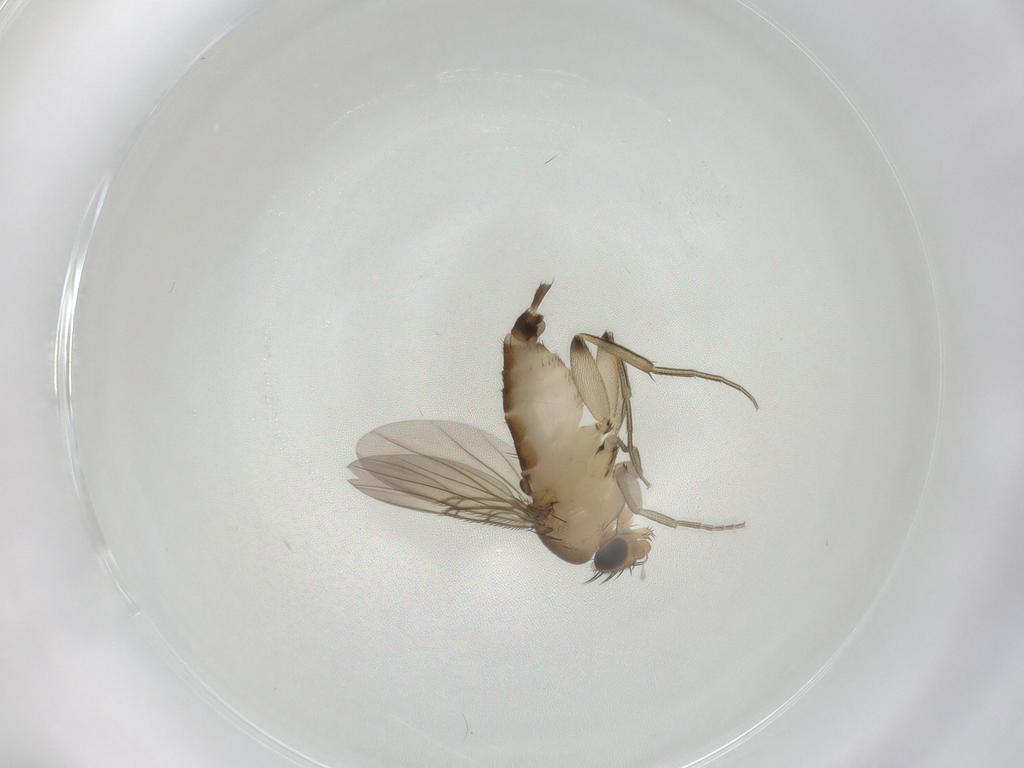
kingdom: Animalia
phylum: Arthropoda
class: Insecta
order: Diptera
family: Phoridae
